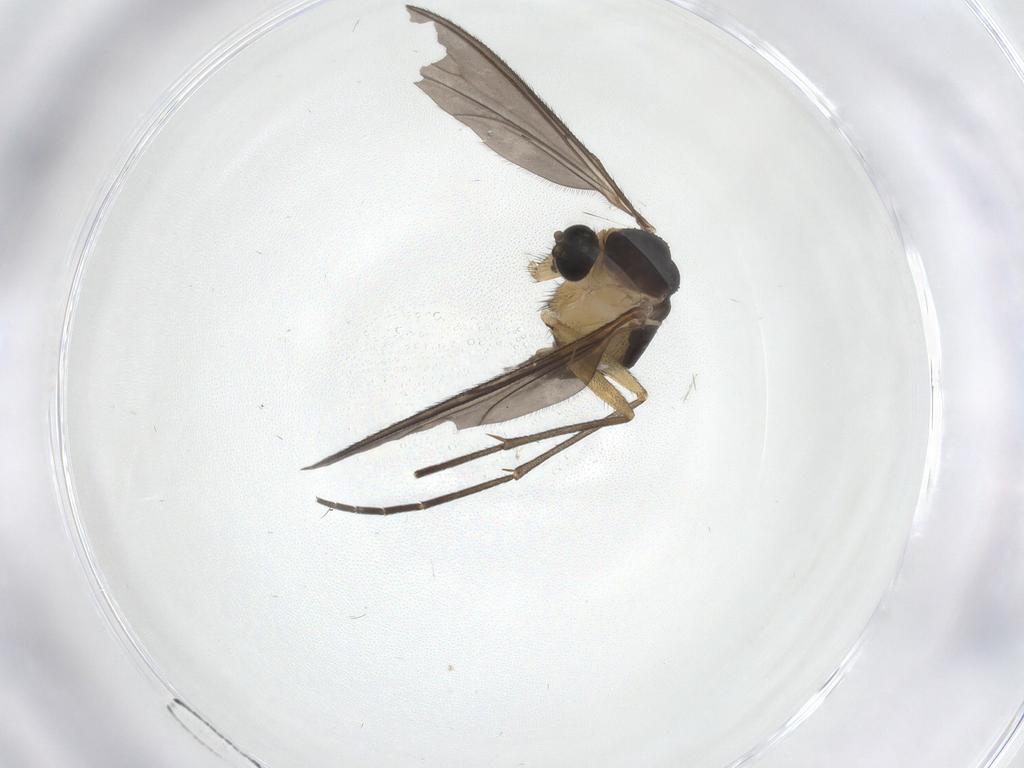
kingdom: Animalia
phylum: Arthropoda
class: Insecta
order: Diptera
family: Sciaridae
